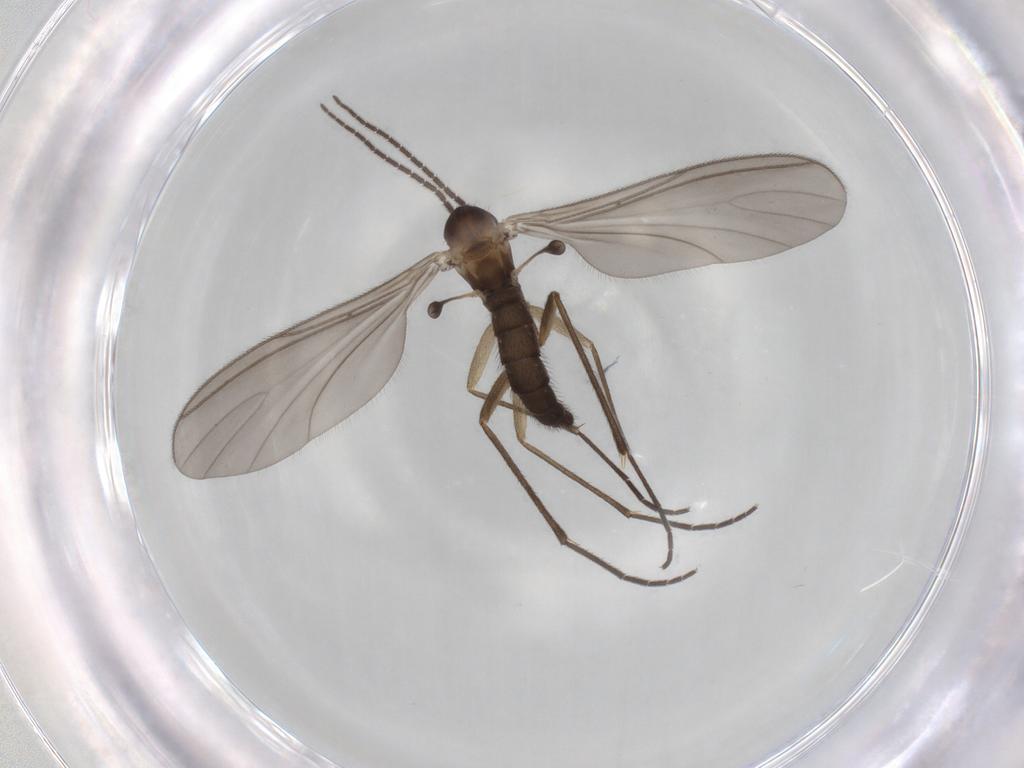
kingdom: Animalia
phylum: Arthropoda
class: Insecta
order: Diptera
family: Sciaridae
